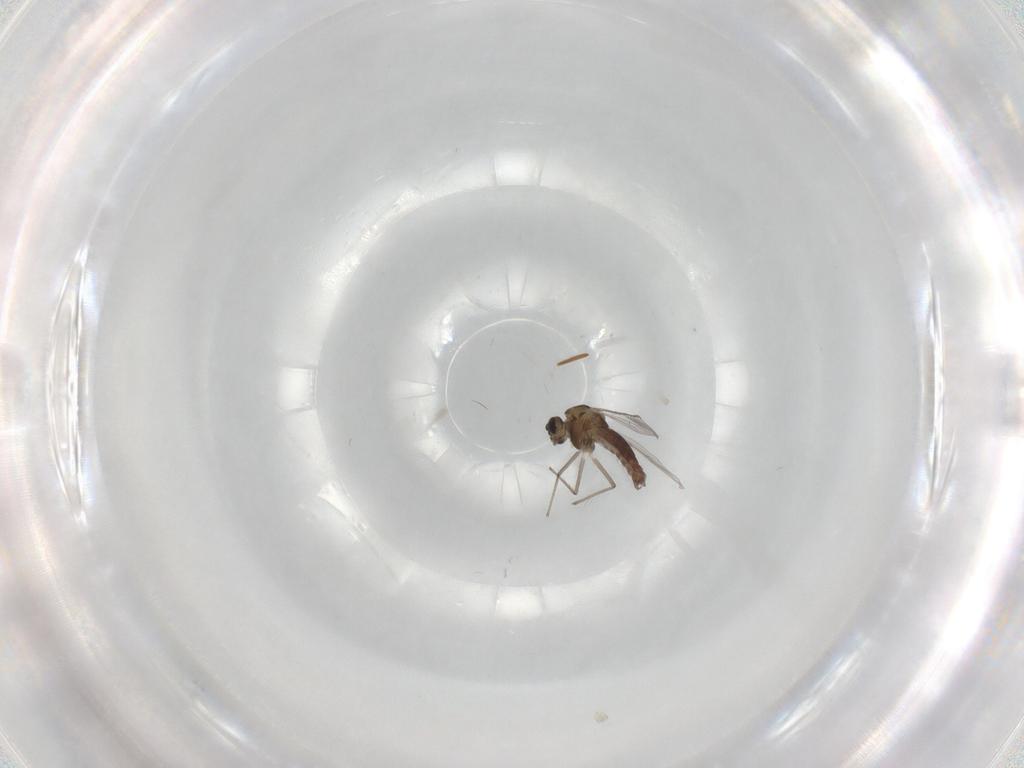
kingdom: Animalia
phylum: Arthropoda
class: Insecta
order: Diptera
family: Chironomidae
